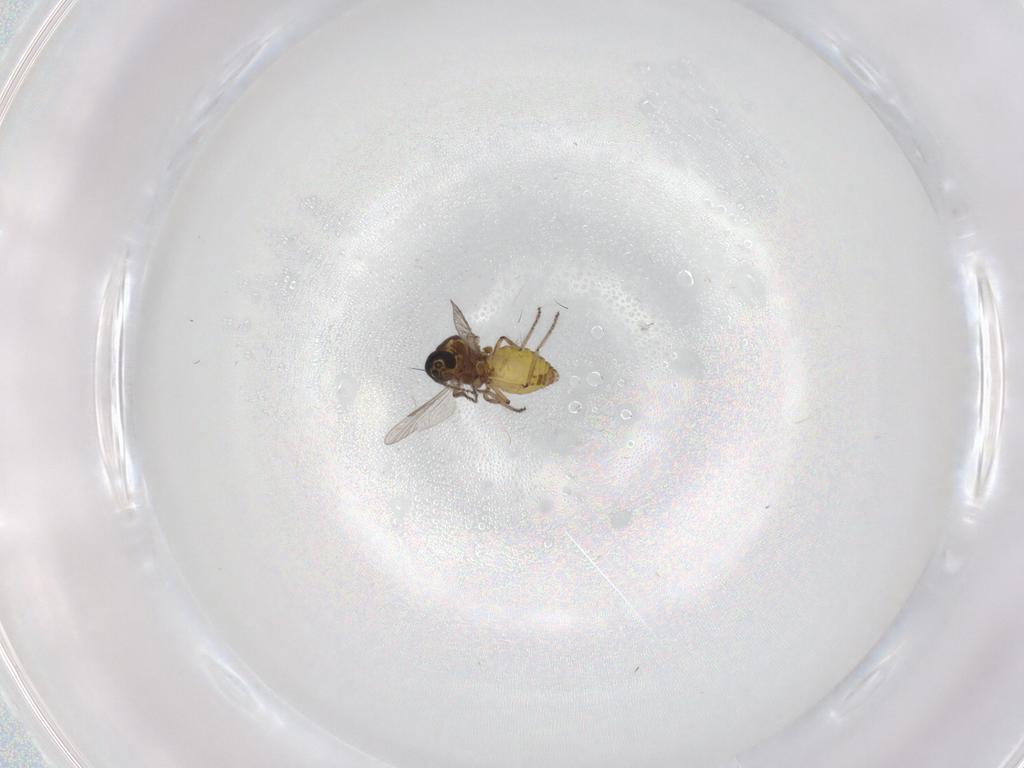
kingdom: Animalia
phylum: Arthropoda
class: Insecta
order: Diptera
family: Ceratopogonidae
